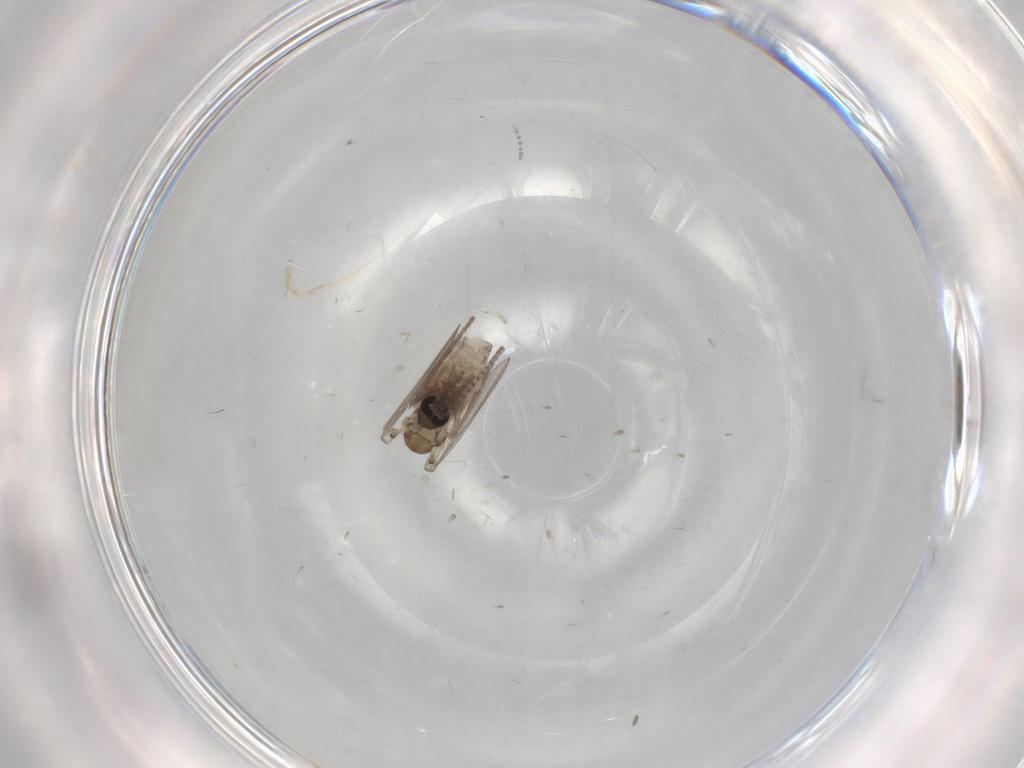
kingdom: Animalia
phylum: Arthropoda
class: Insecta
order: Diptera
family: Psychodidae
